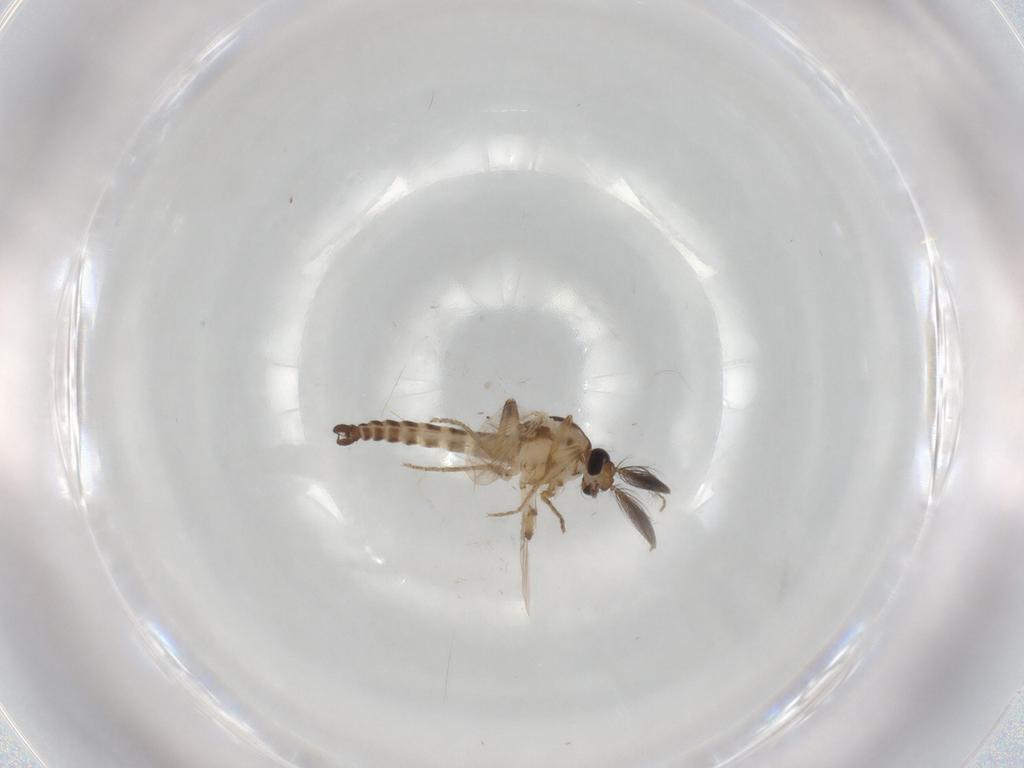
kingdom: Animalia
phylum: Arthropoda
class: Insecta
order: Diptera
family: Ceratopogonidae
